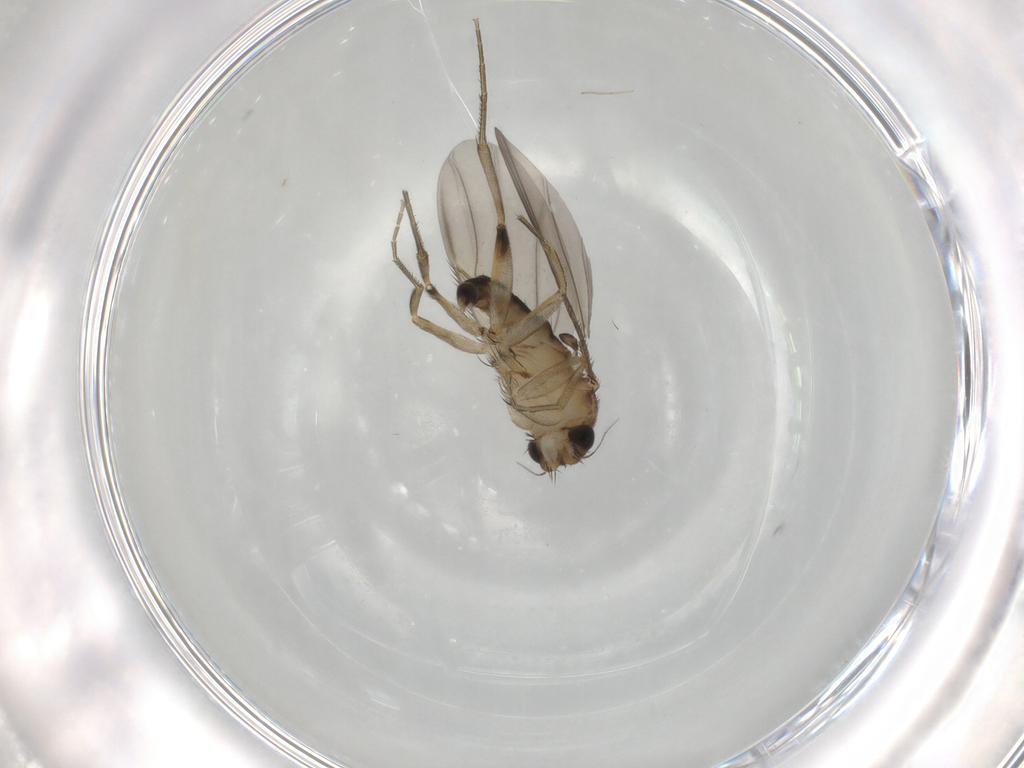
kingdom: Animalia
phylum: Arthropoda
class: Insecta
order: Diptera
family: Phoridae
